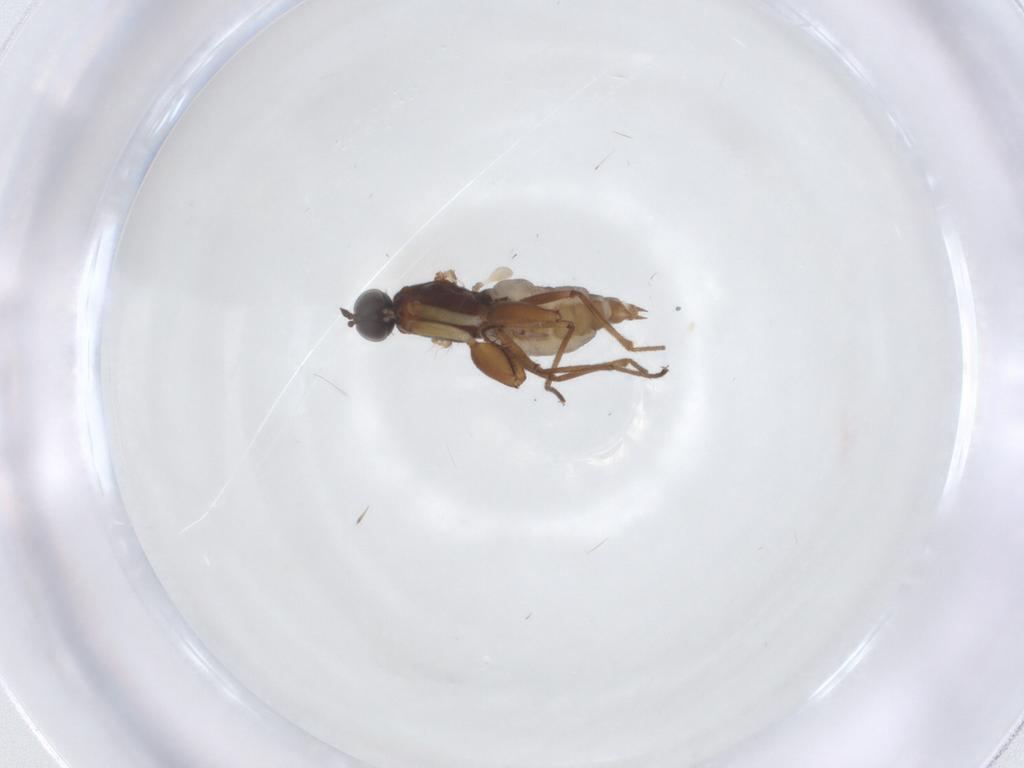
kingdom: Animalia
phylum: Arthropoda
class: Insecta
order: Diptera
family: Empididae
